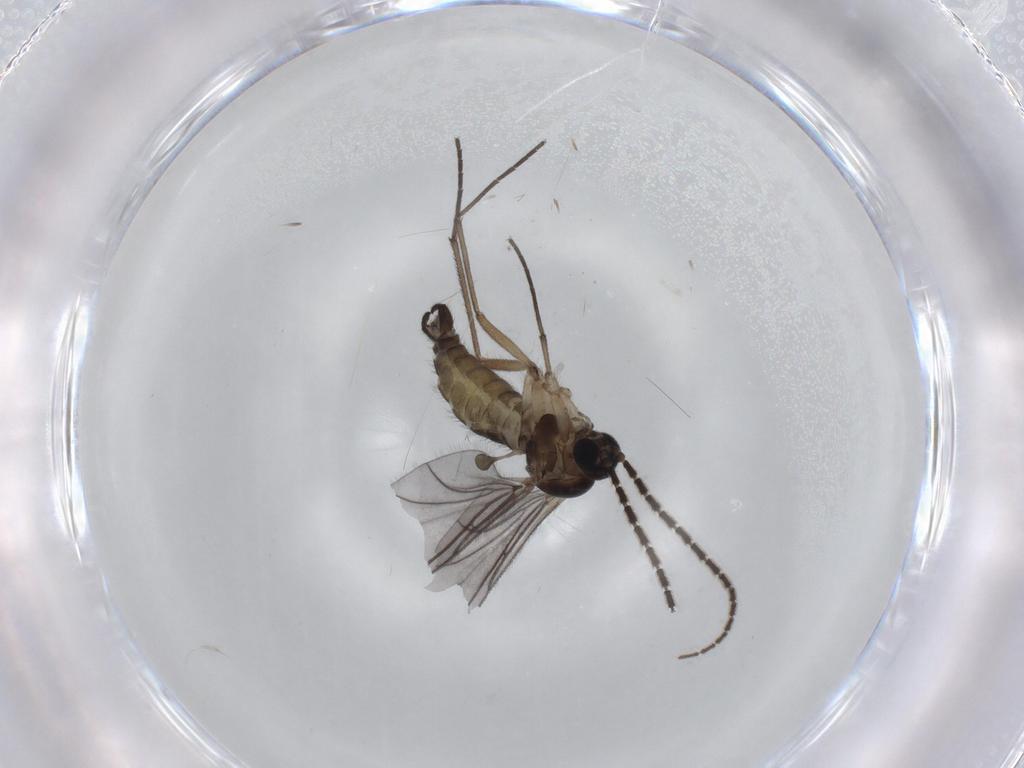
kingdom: Animalia
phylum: Arthropoda
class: Insecta
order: Diptera
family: Sciaridae
